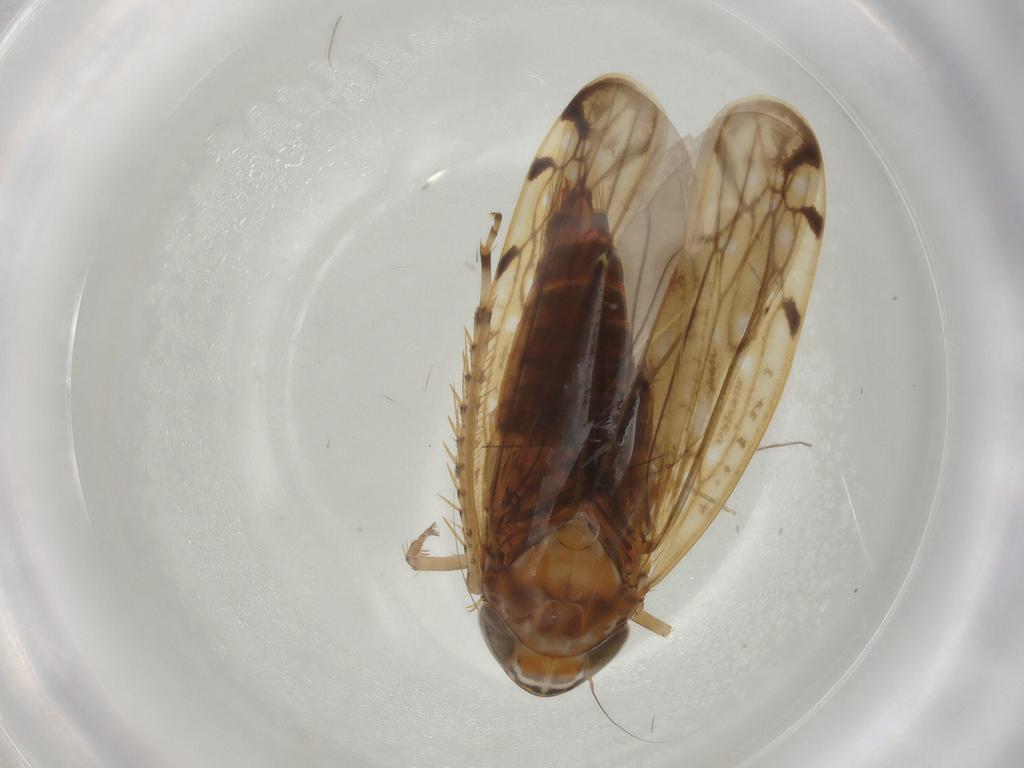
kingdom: Animalia
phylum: Arthropoda
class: Insecta
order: Hemiptera
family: Cicadellidae
